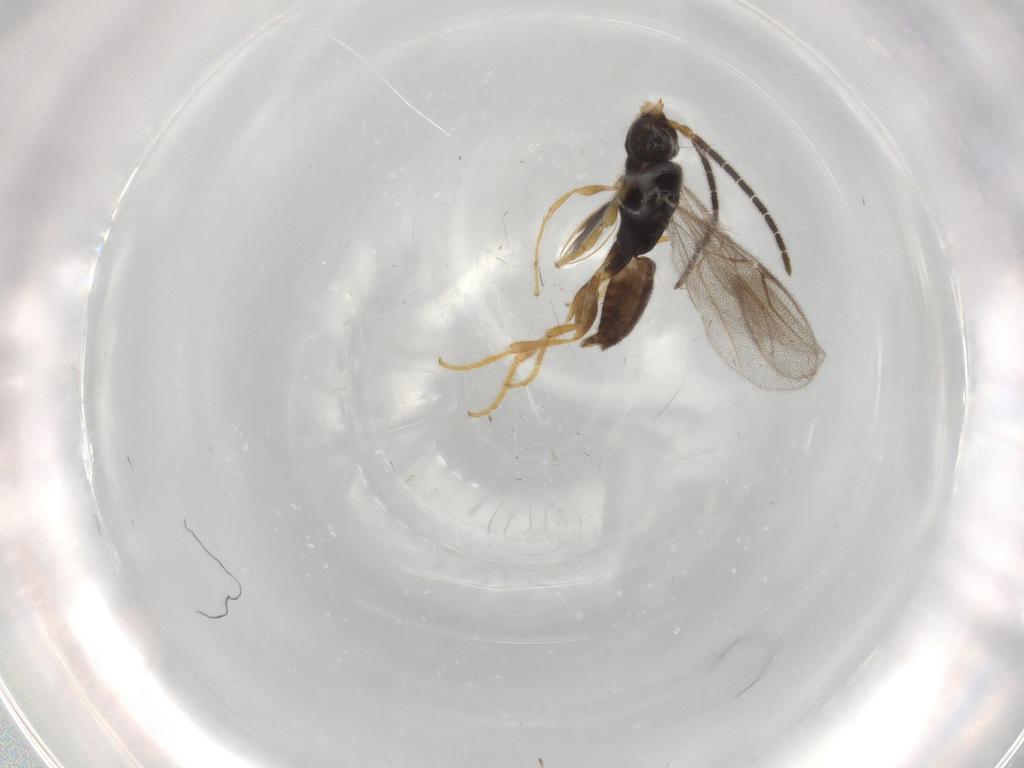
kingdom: Animalia
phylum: Arthropoda
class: Insecta
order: Hymenoptera
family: Dryinidae
